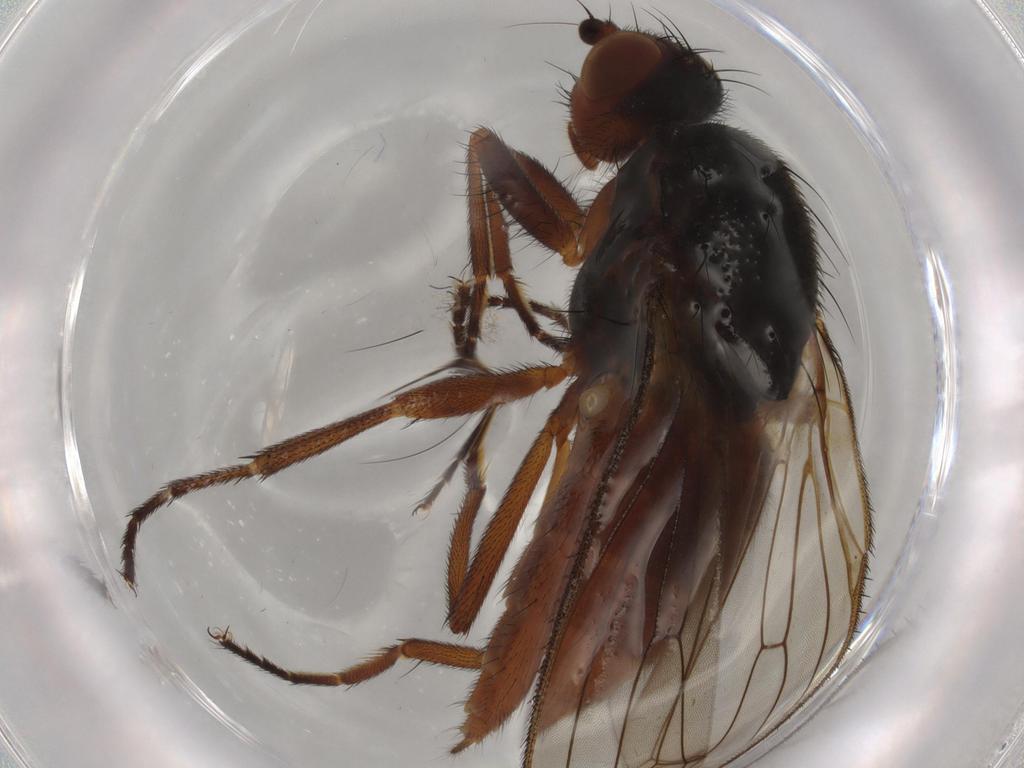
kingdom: Animalia
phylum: Arthropoda
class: Insecta
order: Diptera
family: Heleomyzidae
